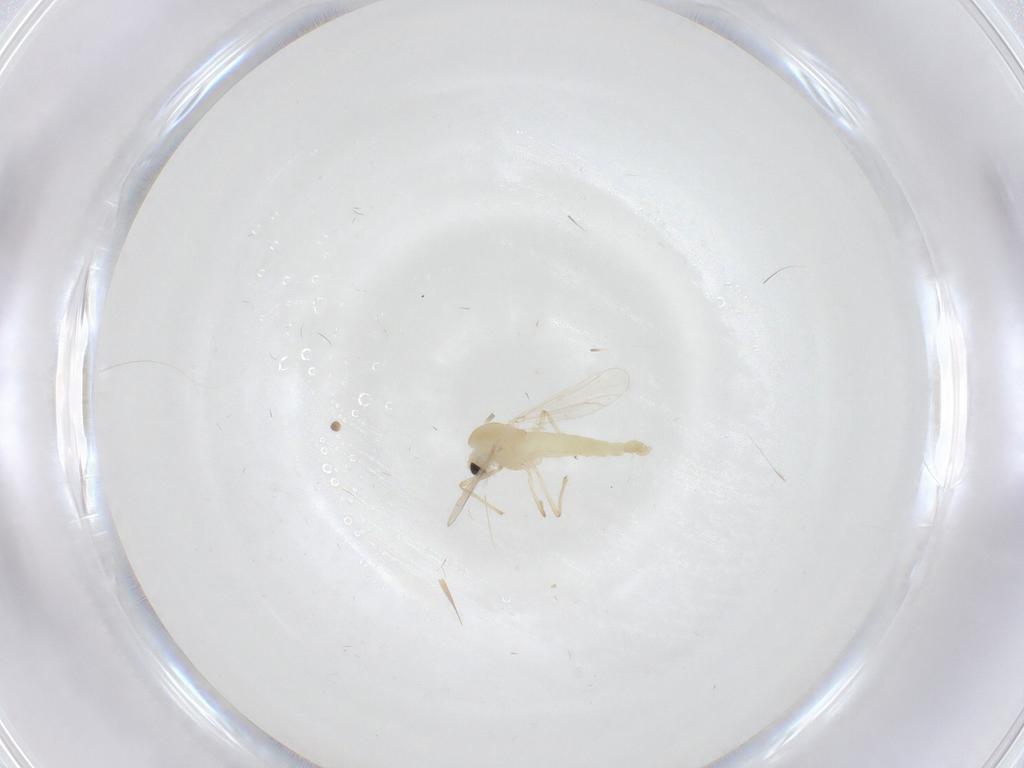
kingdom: Animalia
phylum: Arthropoda
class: Insecta
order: Diptera
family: Chironomidae
